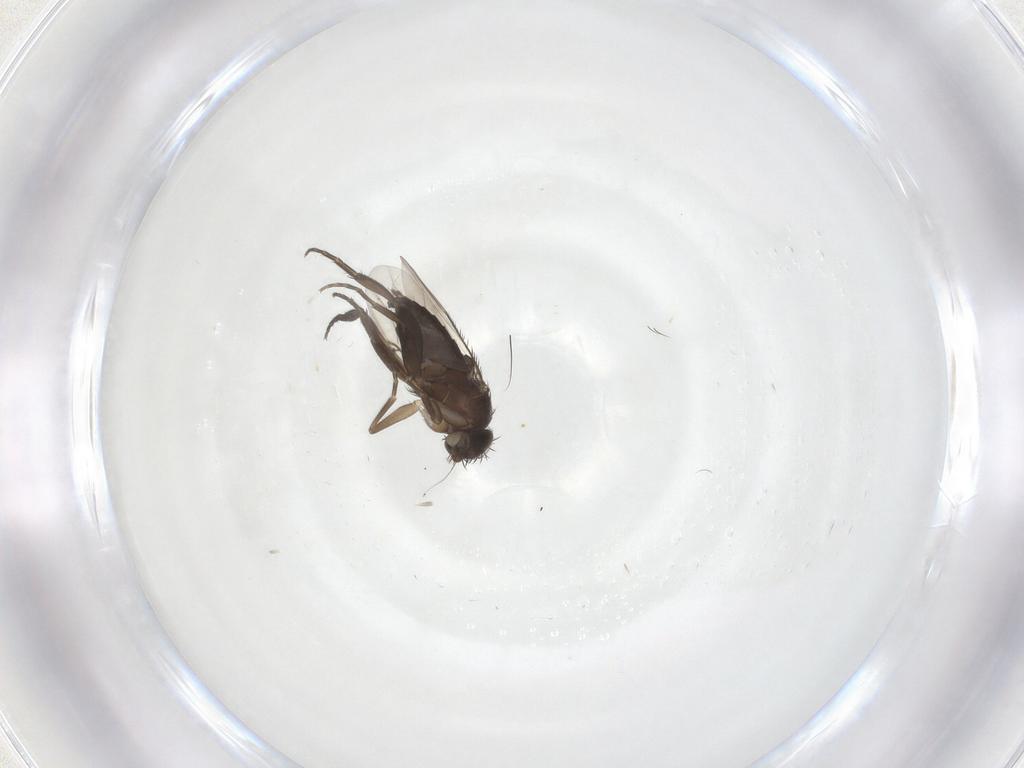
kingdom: Animalia
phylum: Arthropoda
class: Insecta
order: Diptera
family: Phoridae
